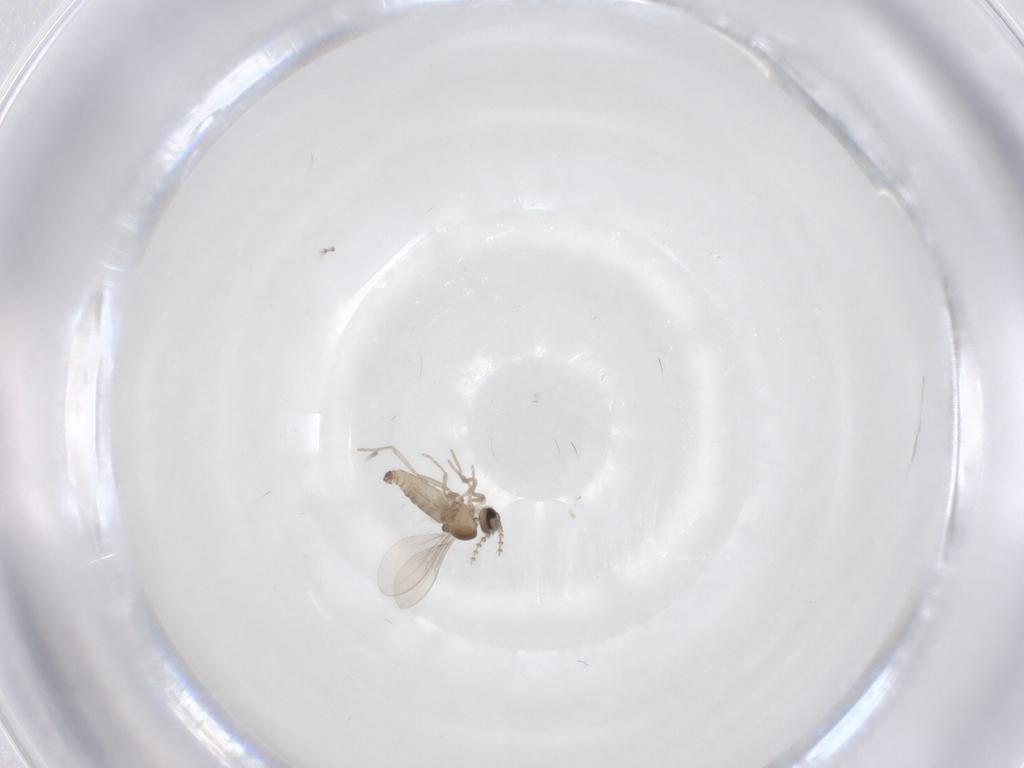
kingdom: Animalia
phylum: Arthropoda
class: Insecta
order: Diptera
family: Cecidomyiidae
